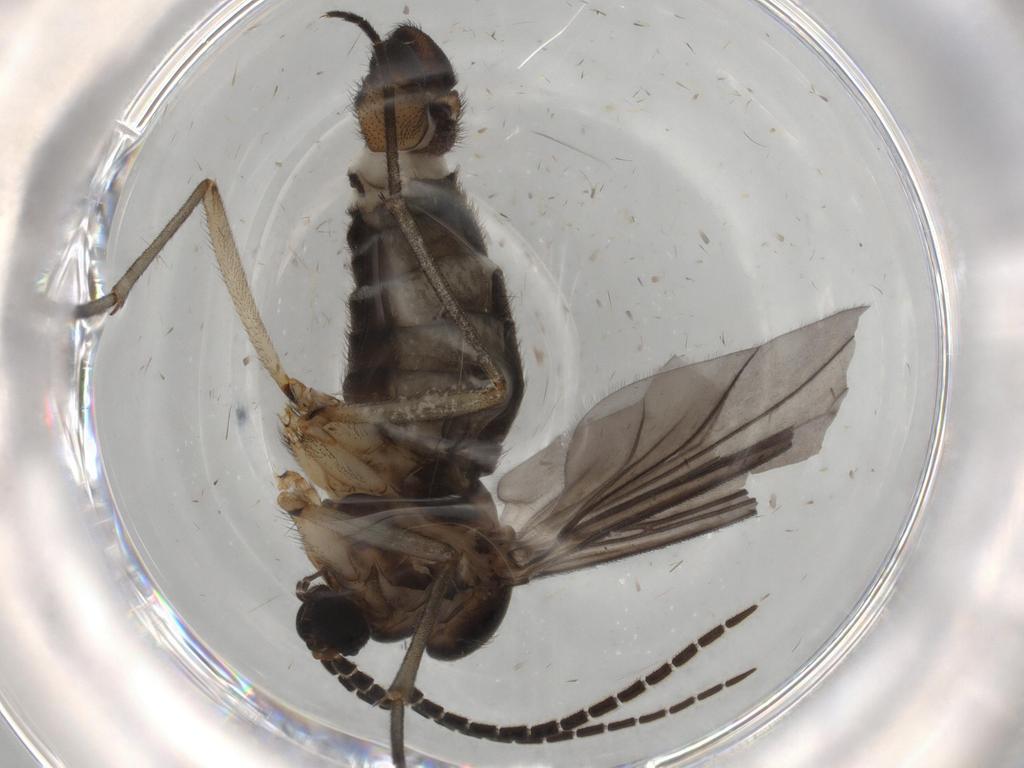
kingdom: Animalia
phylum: Arthropoda
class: Insecta
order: Diptera
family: Sciaridae
